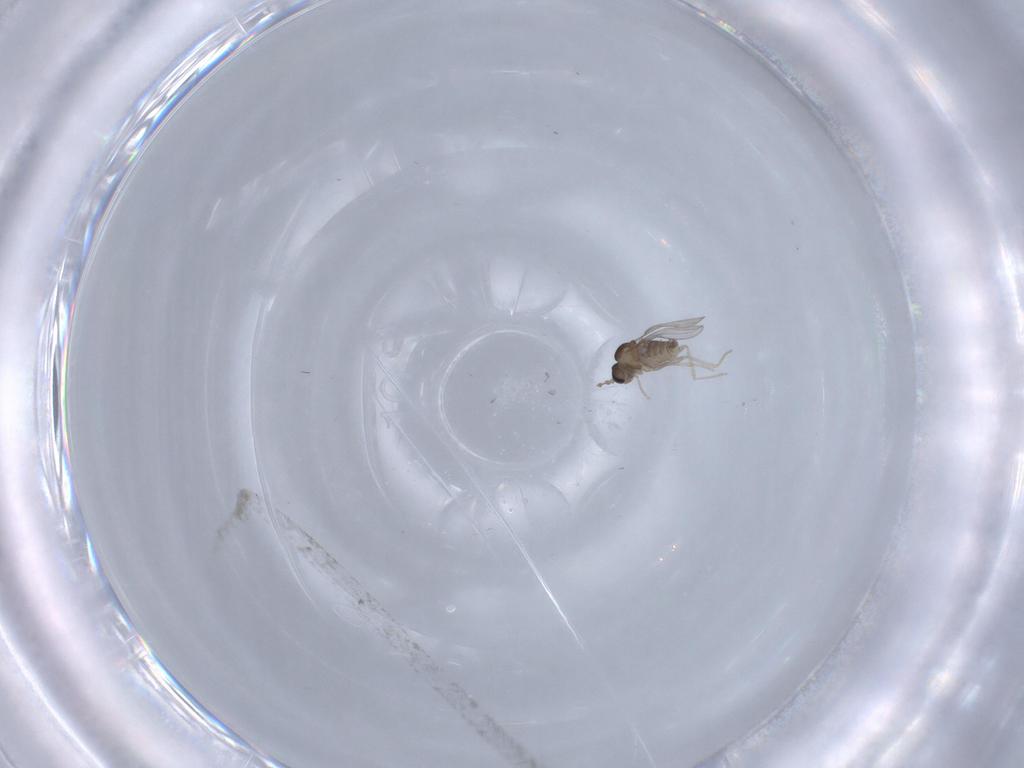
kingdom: Animalia
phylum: Arthropoda
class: Insecta
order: Diptera
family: Cecidomyiidae
